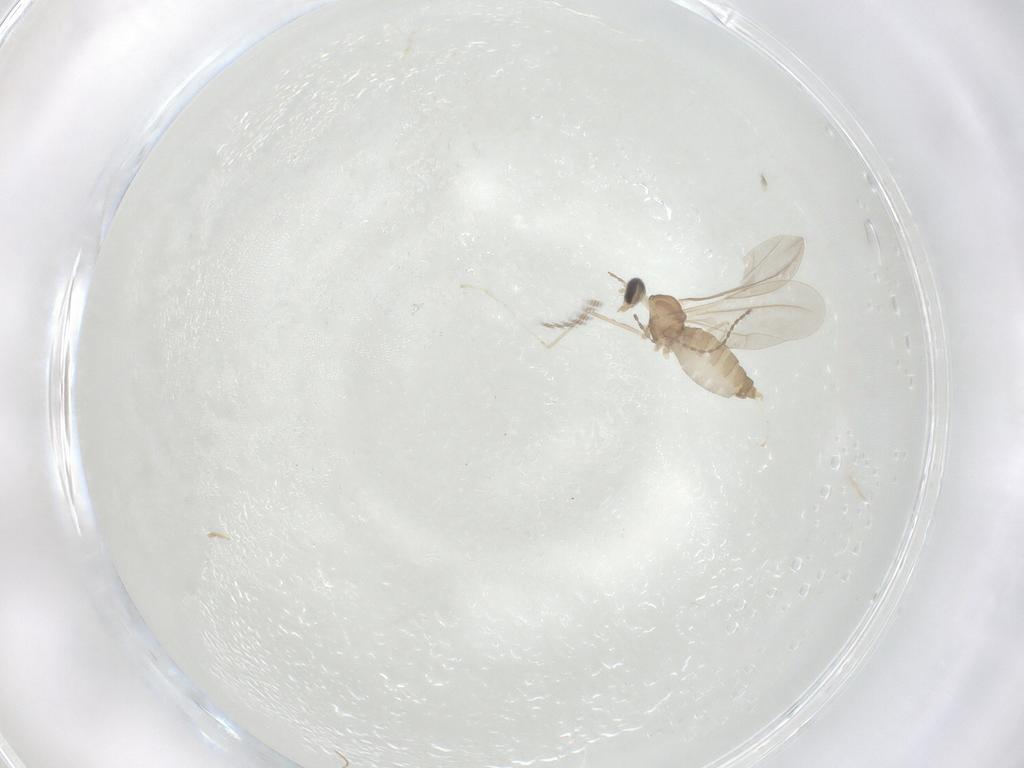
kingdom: Animalia
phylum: Arthropoda
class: Insecta
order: Diptera
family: Cecidomyiidae
